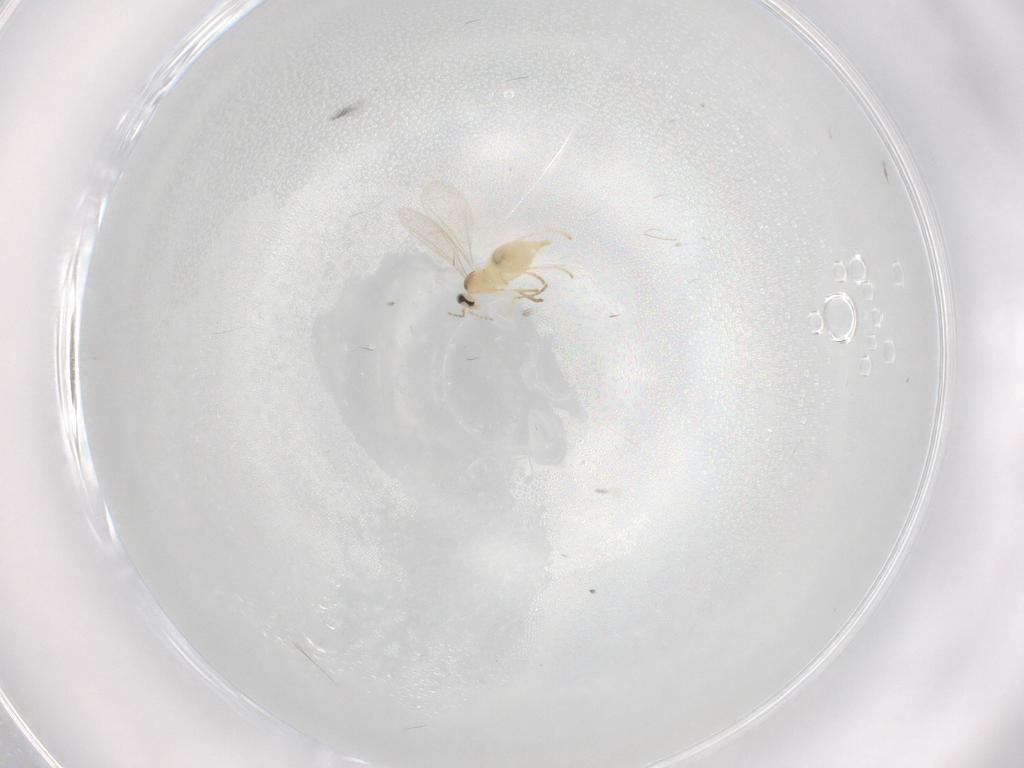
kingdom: Animalia
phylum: Arthropoda
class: Insecta
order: Diptera
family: Cecidomyiidae
